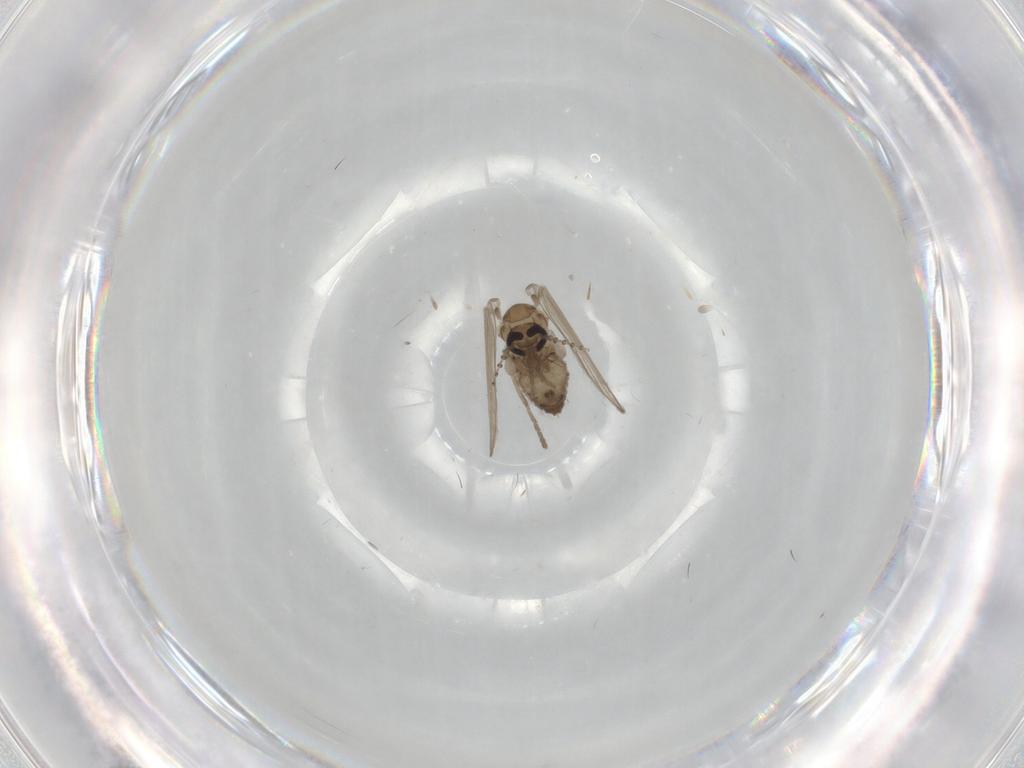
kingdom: Animalia
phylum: Arthropoda
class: Insecta
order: Diptera
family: Psychodidae
